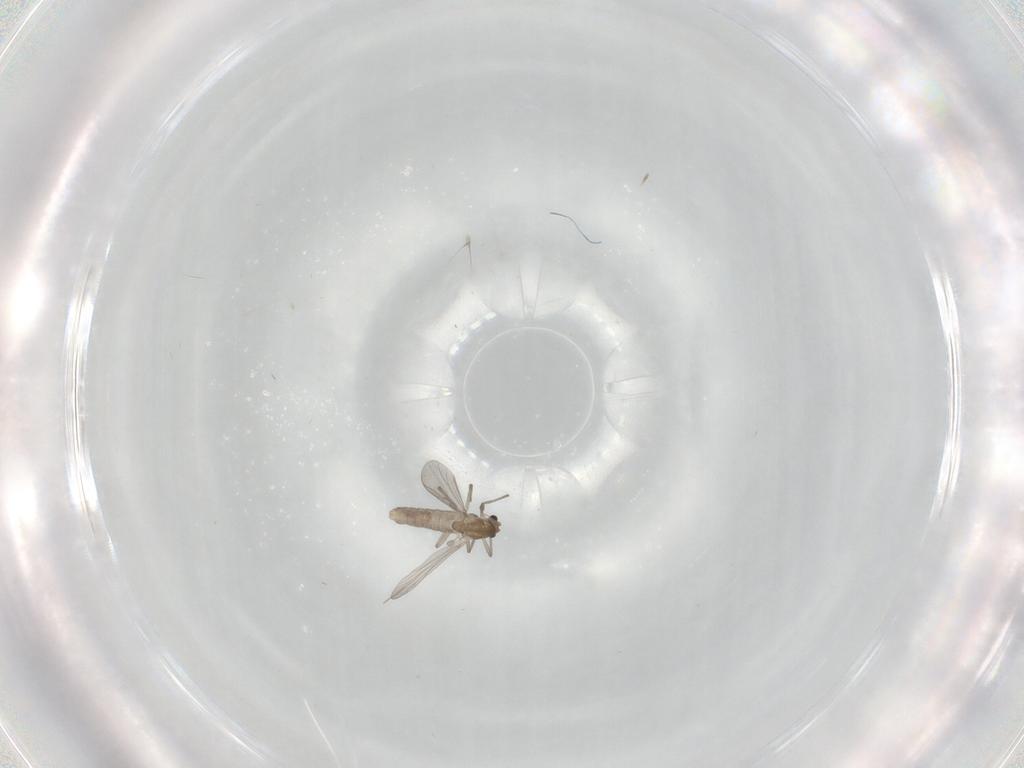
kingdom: Animalia
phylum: Arthropoda
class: Insecta
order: Diptera
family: Chironomidae
